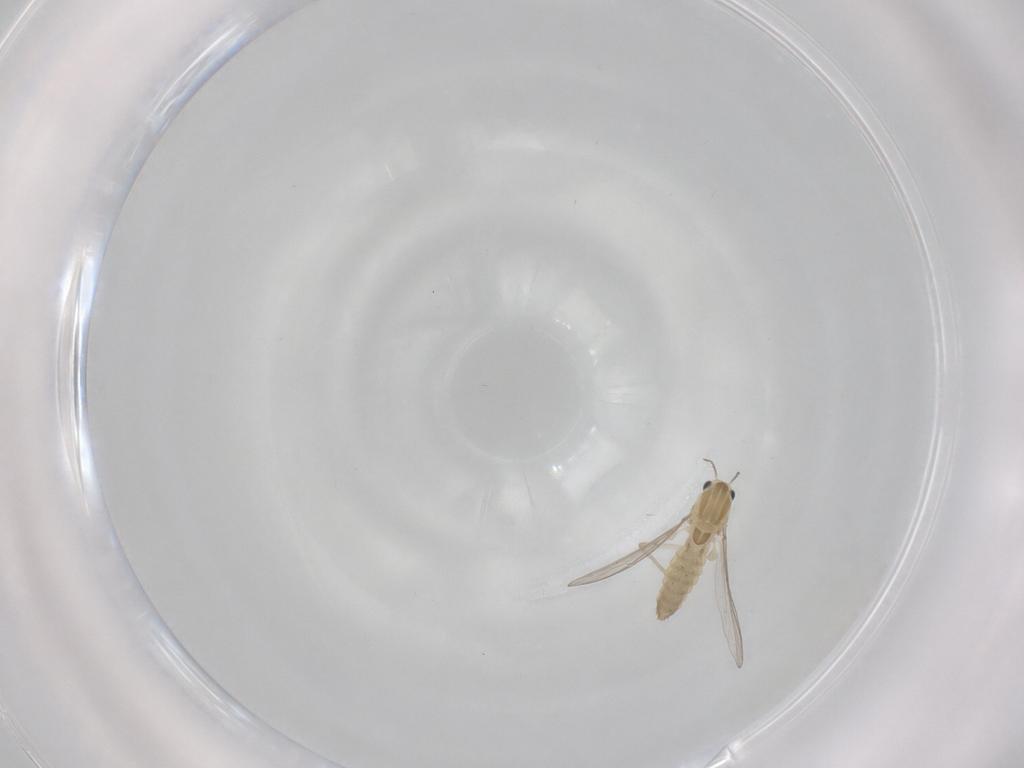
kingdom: Animalia
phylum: Arthropoda
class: Insecta
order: Diptera
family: Chironomidae
